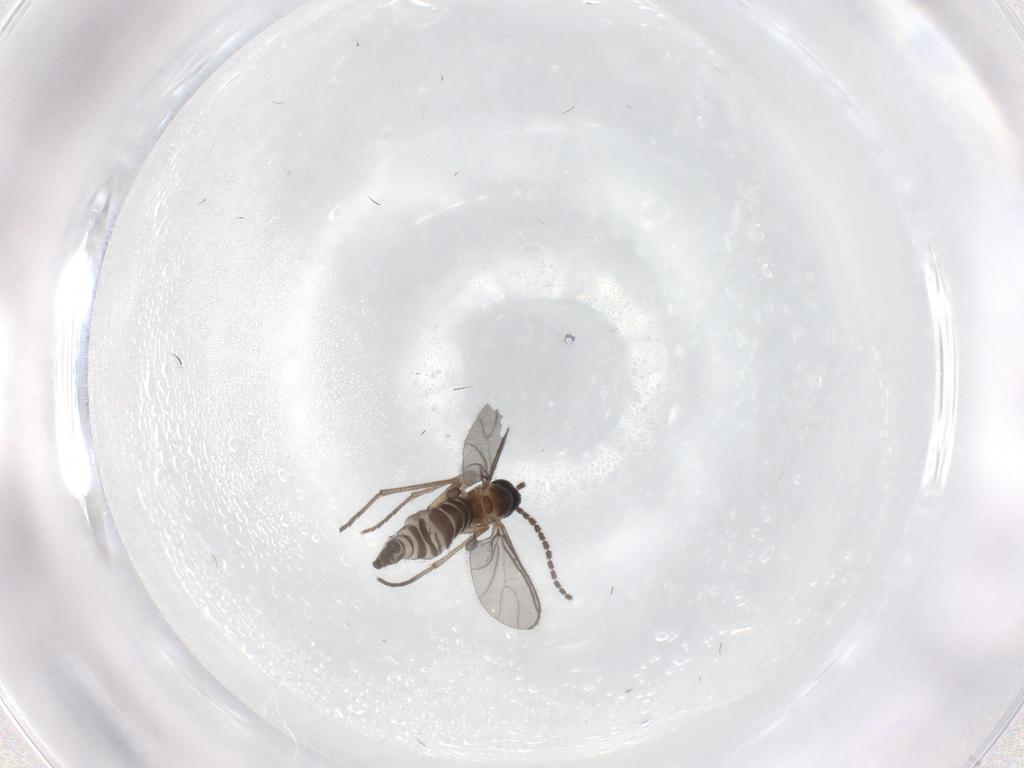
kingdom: Animalia
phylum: Arthropoda
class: Insecta
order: Diptera
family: Sciaridae
